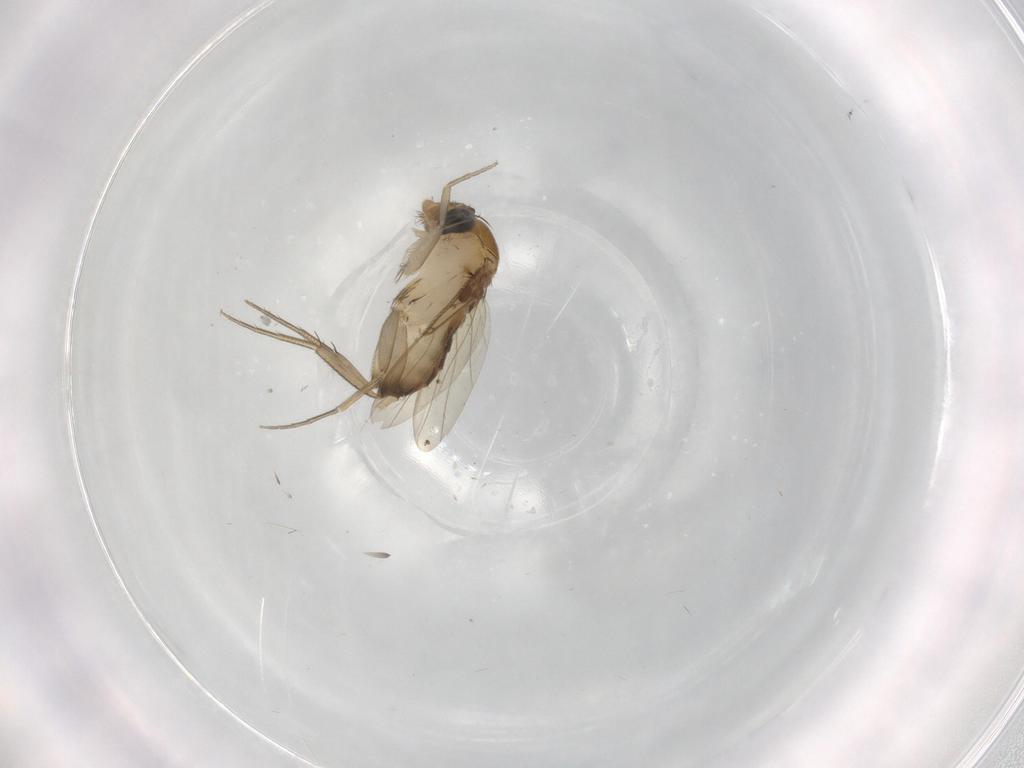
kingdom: Animalia
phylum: Arthropoda
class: Insecta
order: Diptera
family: Phoridae
